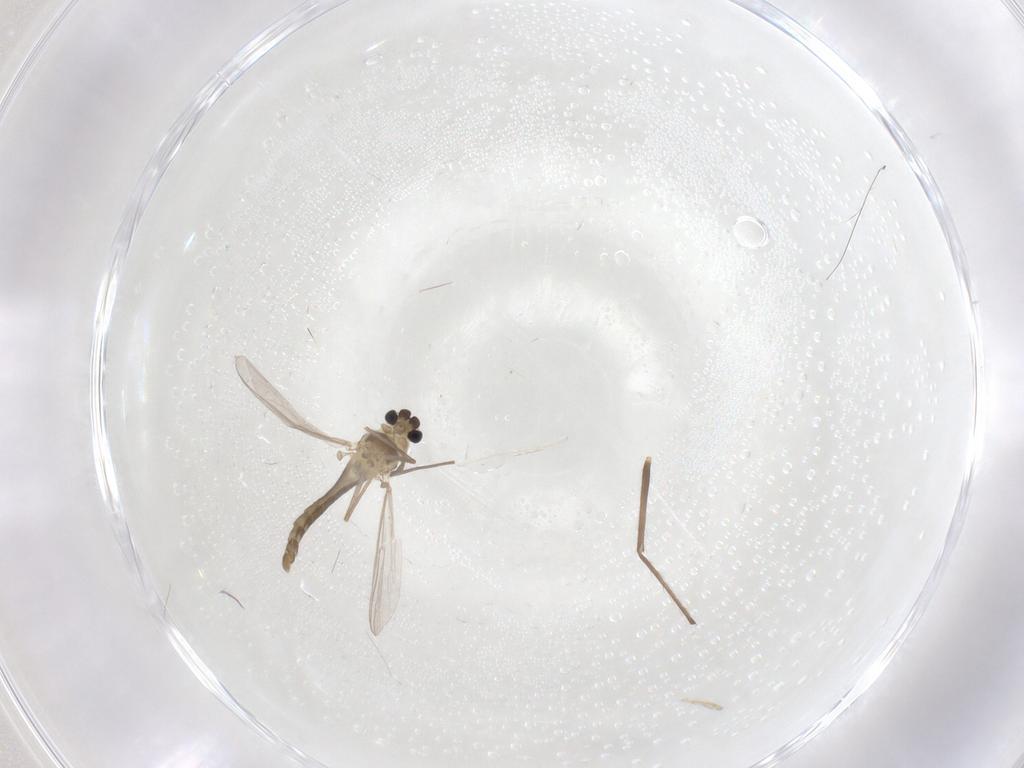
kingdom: Animalia
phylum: Arthropoda
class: Insecta
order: Diptera
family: Chironomidae
